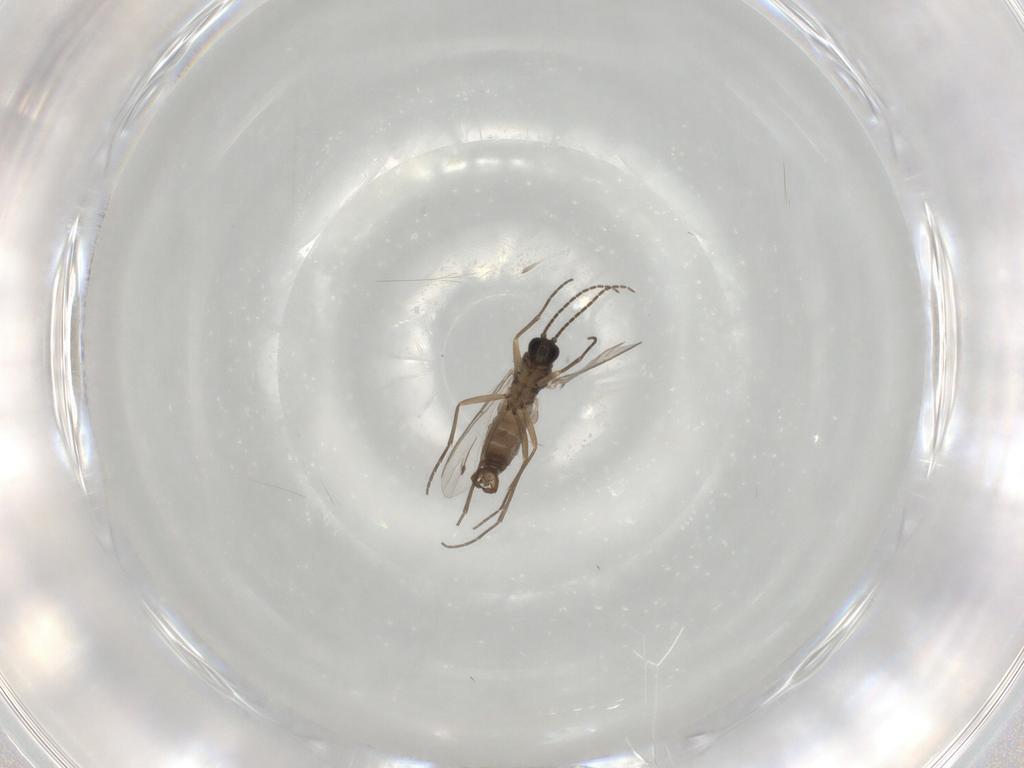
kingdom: Animalia
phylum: Arthropoda
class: Insecta
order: Diptera
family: Sciaridae
